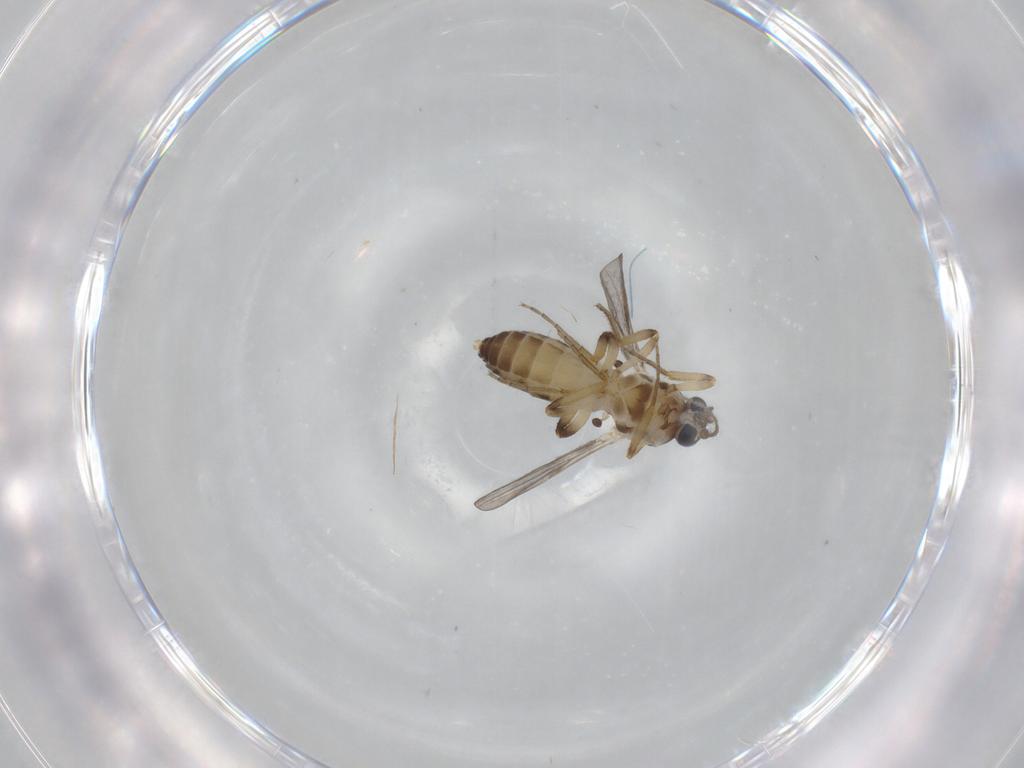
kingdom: Animalia
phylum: Arthropoda
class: Insecta
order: Diptera
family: Ceratopogonidae
